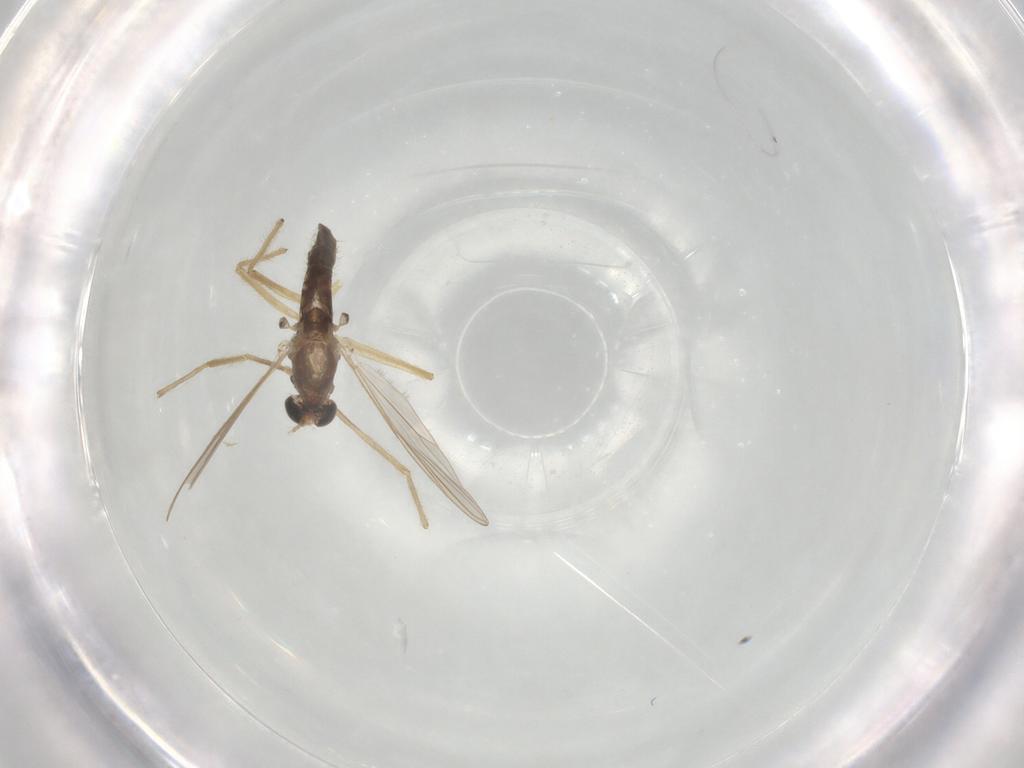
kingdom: Animalia
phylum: Arthropoda
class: Insecta
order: Diptera
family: Chironomidae
